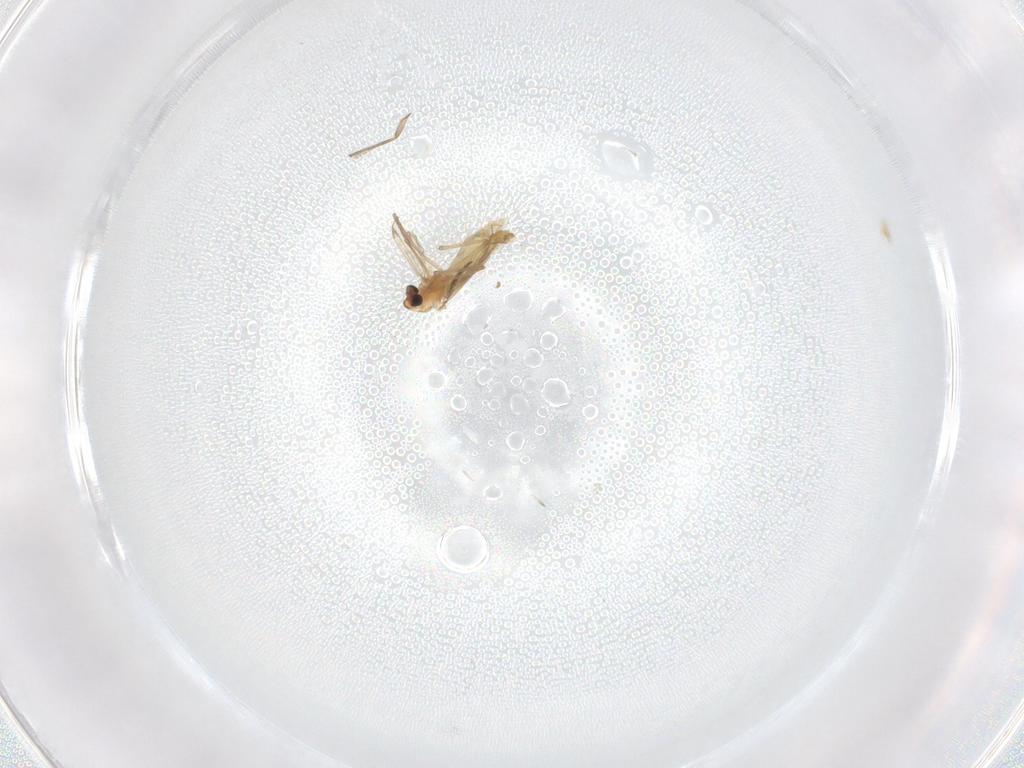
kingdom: Animalia
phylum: Arthropoda
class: Insecta
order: Diptera
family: Chironomidae
